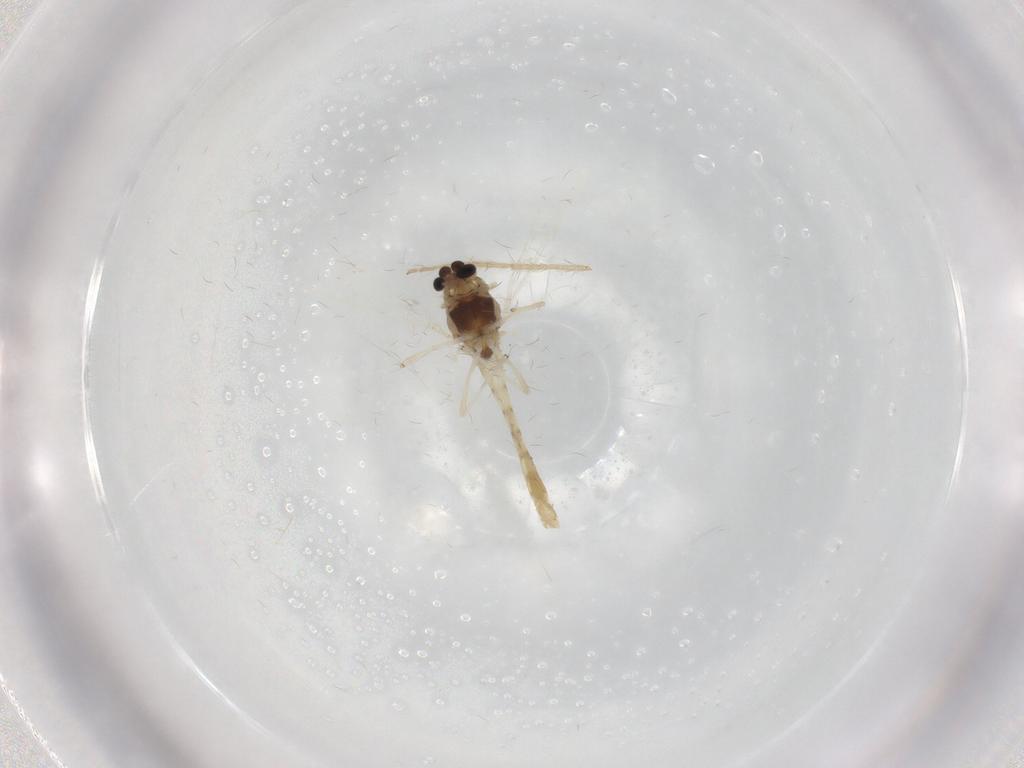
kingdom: Animalia
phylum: Arthropoda
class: Insecta
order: Diptera
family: Chironomidae
